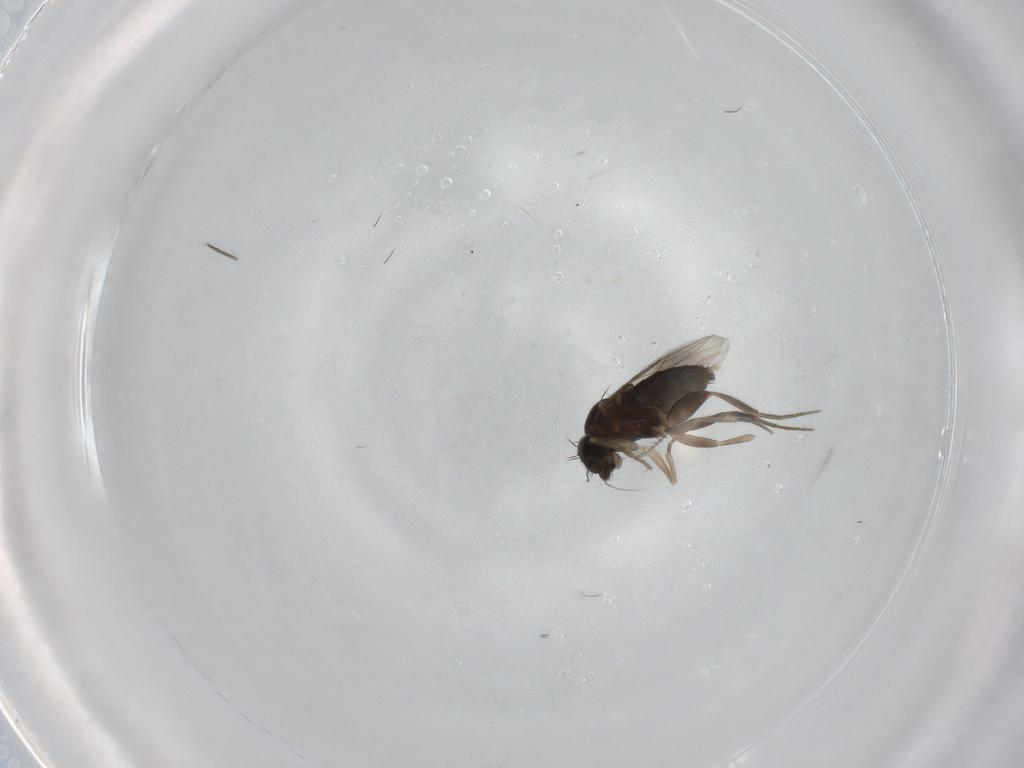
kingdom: Animalia
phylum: Arthropoda
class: Insecta
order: Diptera
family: Phoridae
